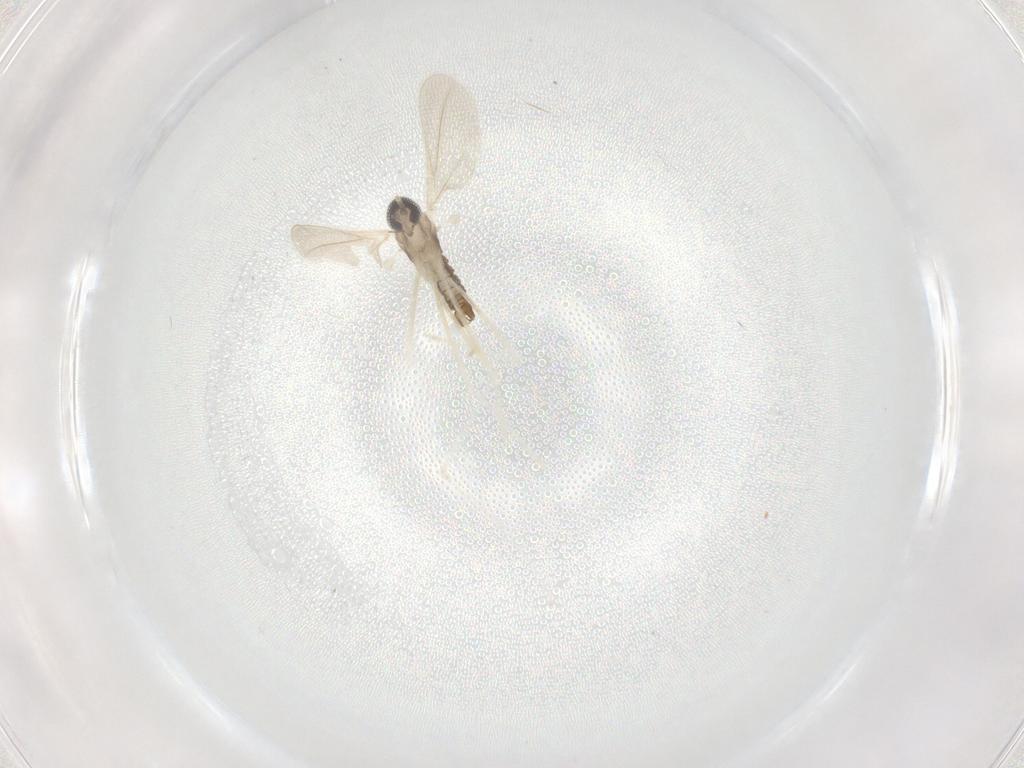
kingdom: Animalia
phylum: Arthropoda
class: Insecta
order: Diptera
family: Cecidomyiidae
